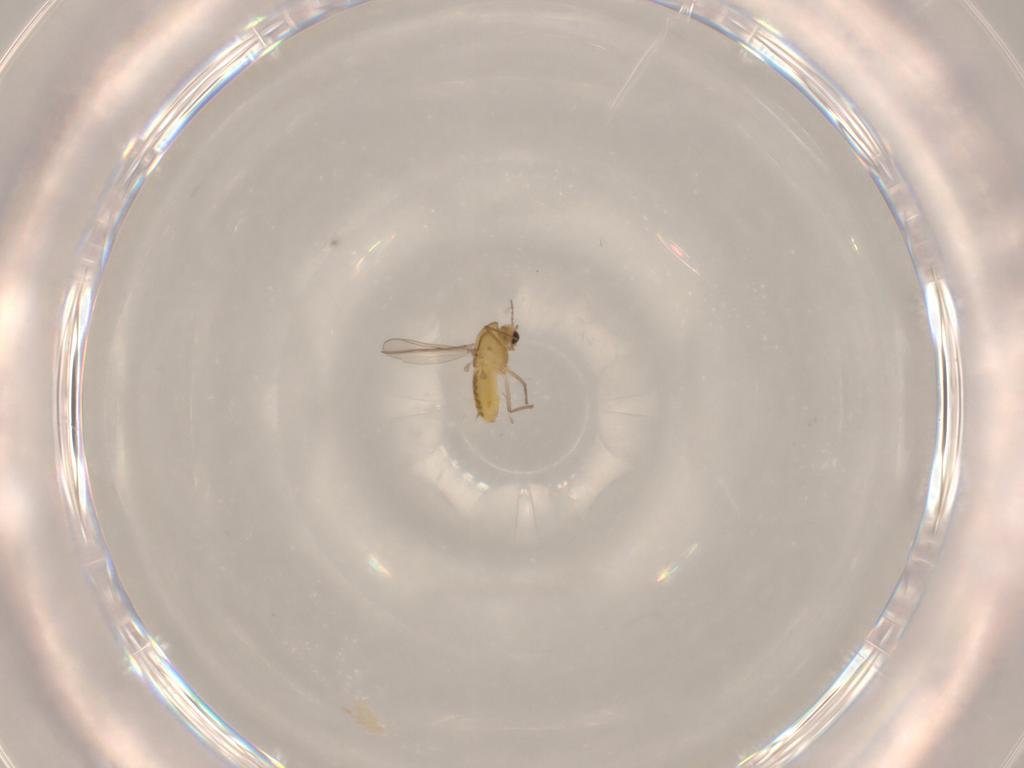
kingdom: Animalia
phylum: Arthropoda
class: Insecta
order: Diptera
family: Chironomidae
